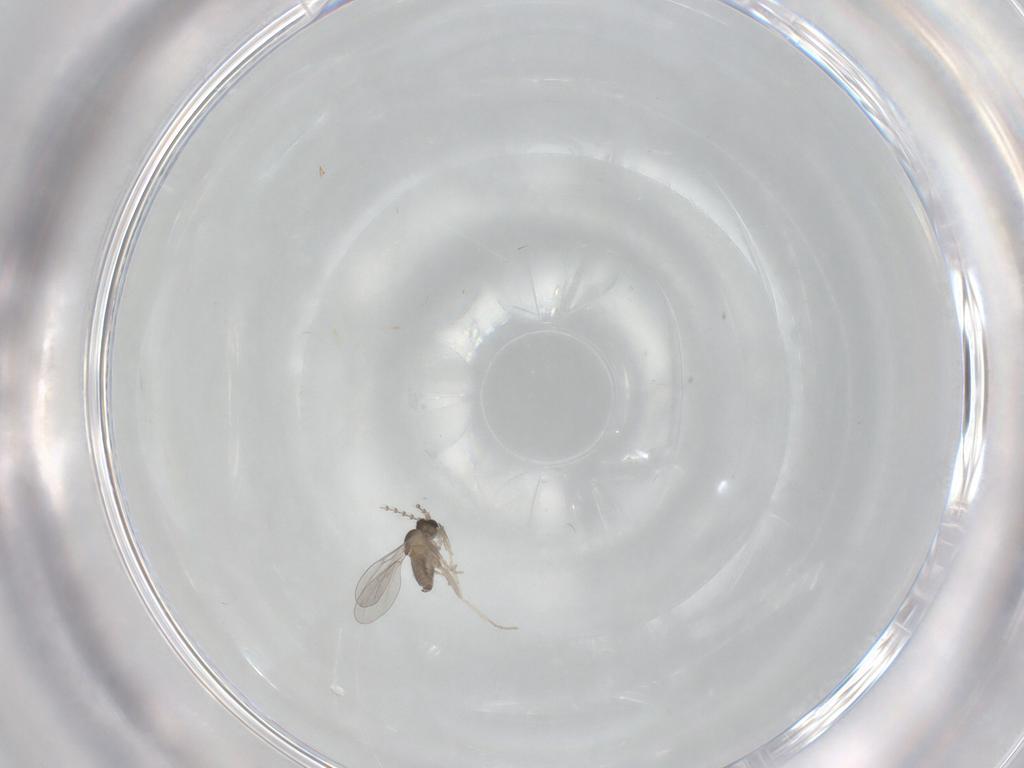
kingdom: Animalia
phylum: Arthropoda
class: Insecta
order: Diptera
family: Cecidomyiidae
